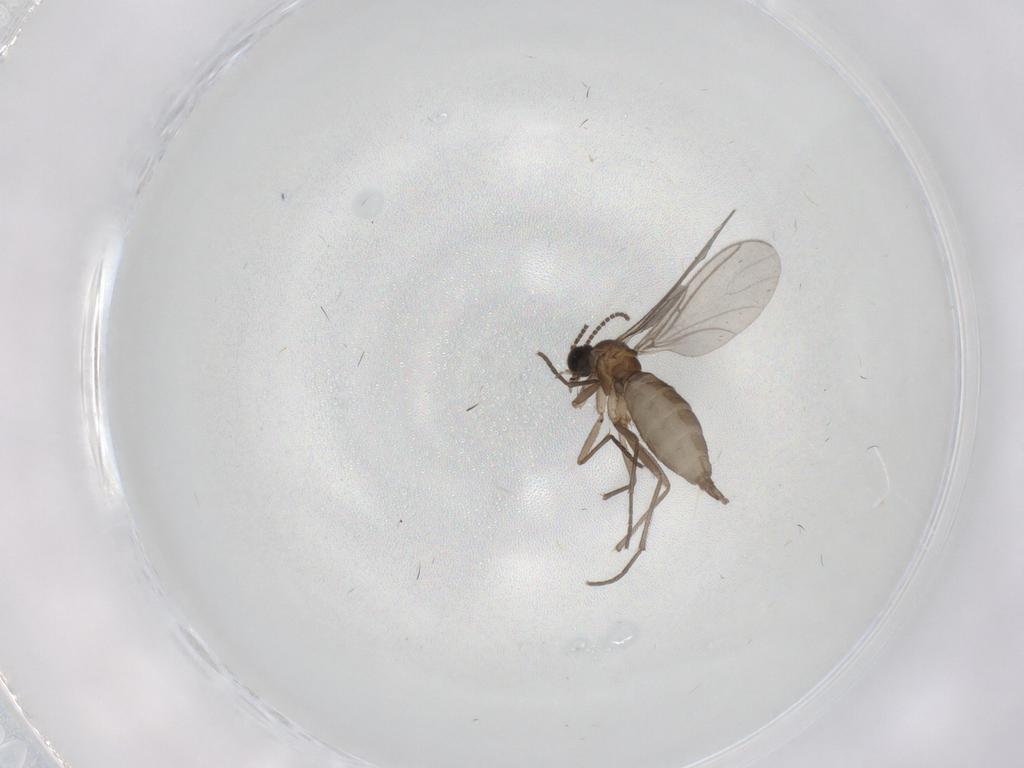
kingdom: Animalia
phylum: Arthropoda
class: Insecta
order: Diptera
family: Sciaridae
